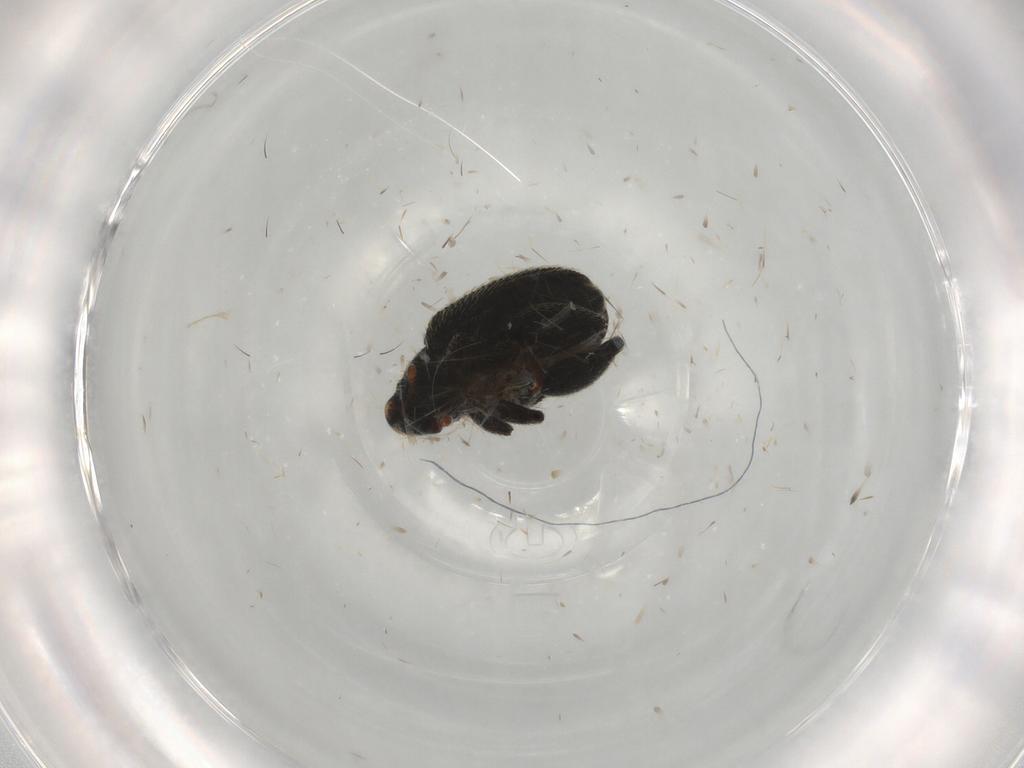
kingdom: Animalia
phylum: Arthropoda
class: Insecta
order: Coleoptera
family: Curculionidae
